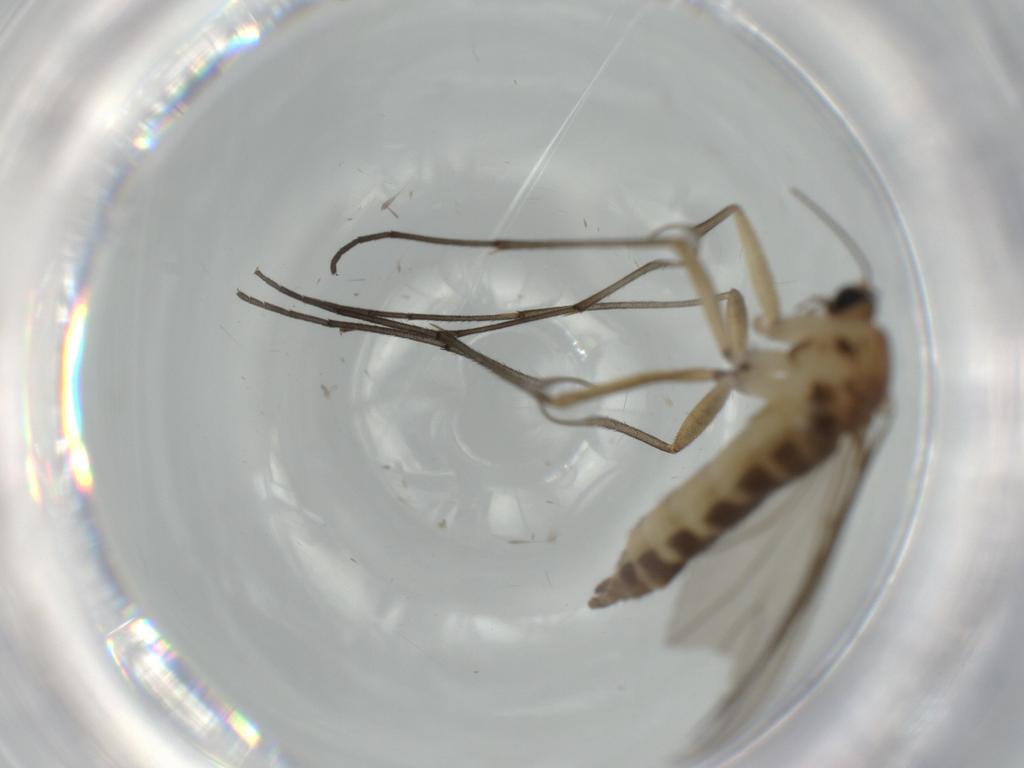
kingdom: Animalia
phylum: Arthropoda
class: Insecta
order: Diptera
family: Sciaridae
